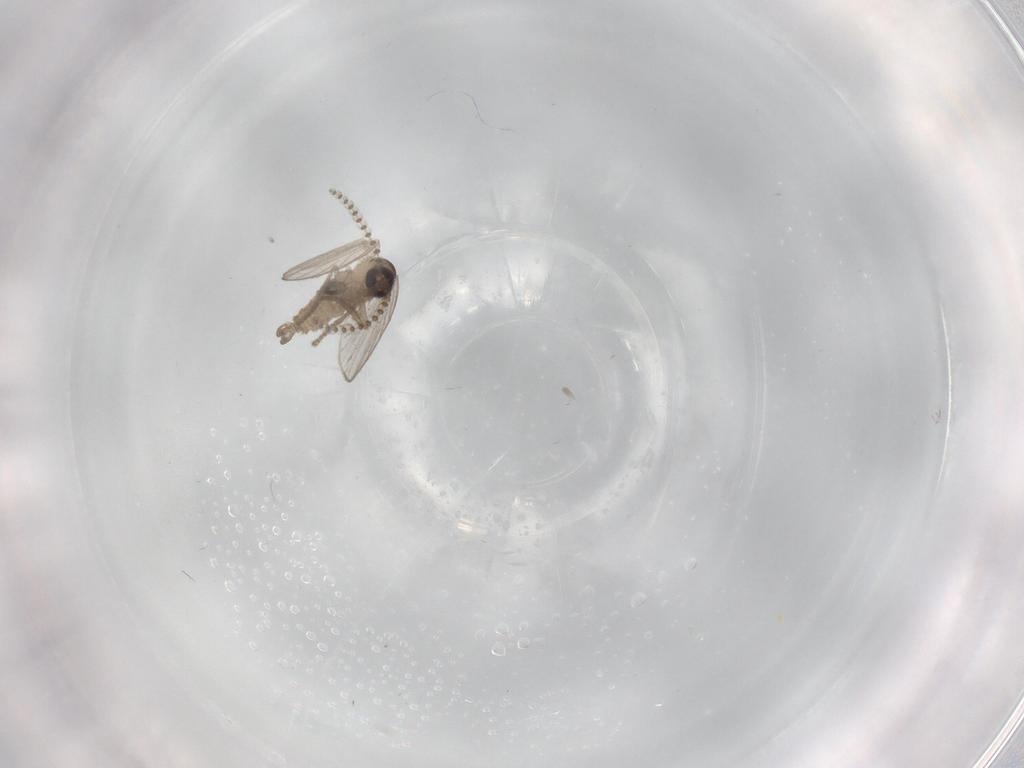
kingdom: Animalia
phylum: Arthropoda
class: Insecta
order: Diptera
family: Psychodidae
